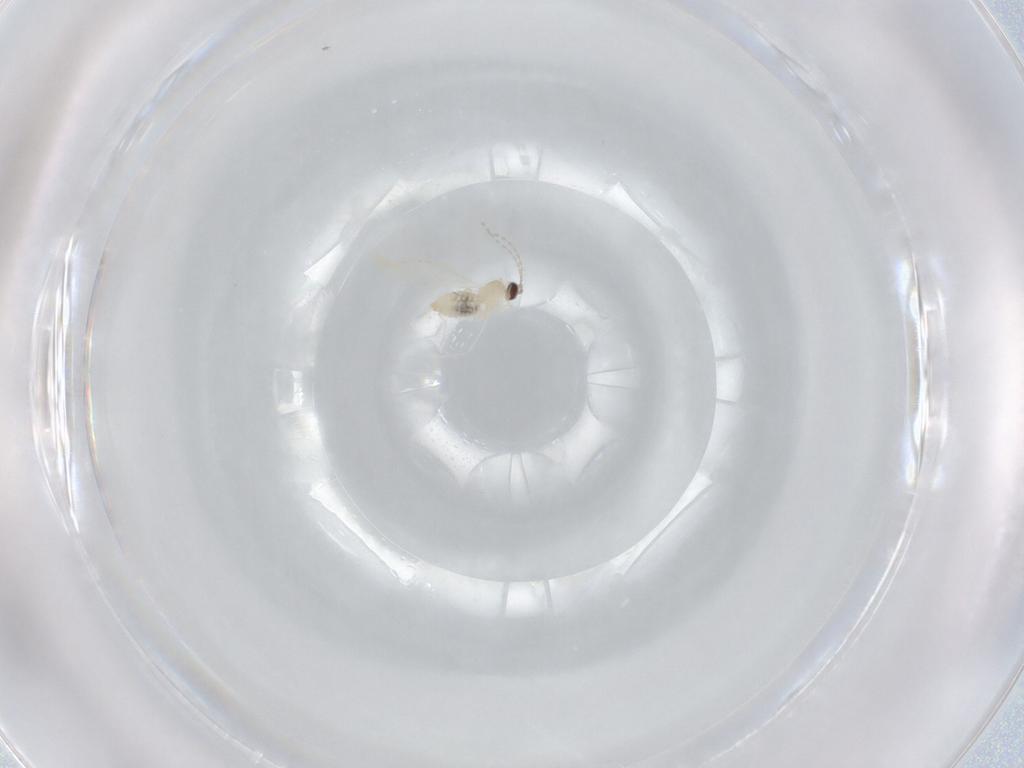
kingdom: Animalia
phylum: Arthropoda
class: Insecta
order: Diptera
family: Cecidomyiidae
